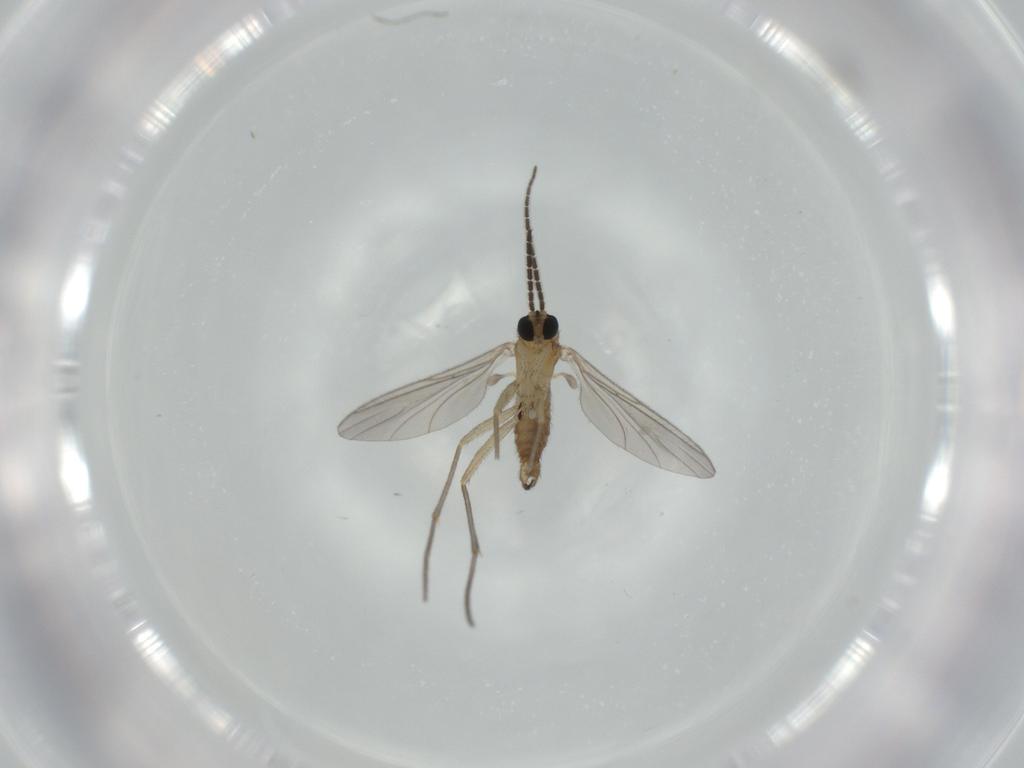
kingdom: Animalia
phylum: Arthropoda
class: Insecta
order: Diptera
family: Sciaridae
